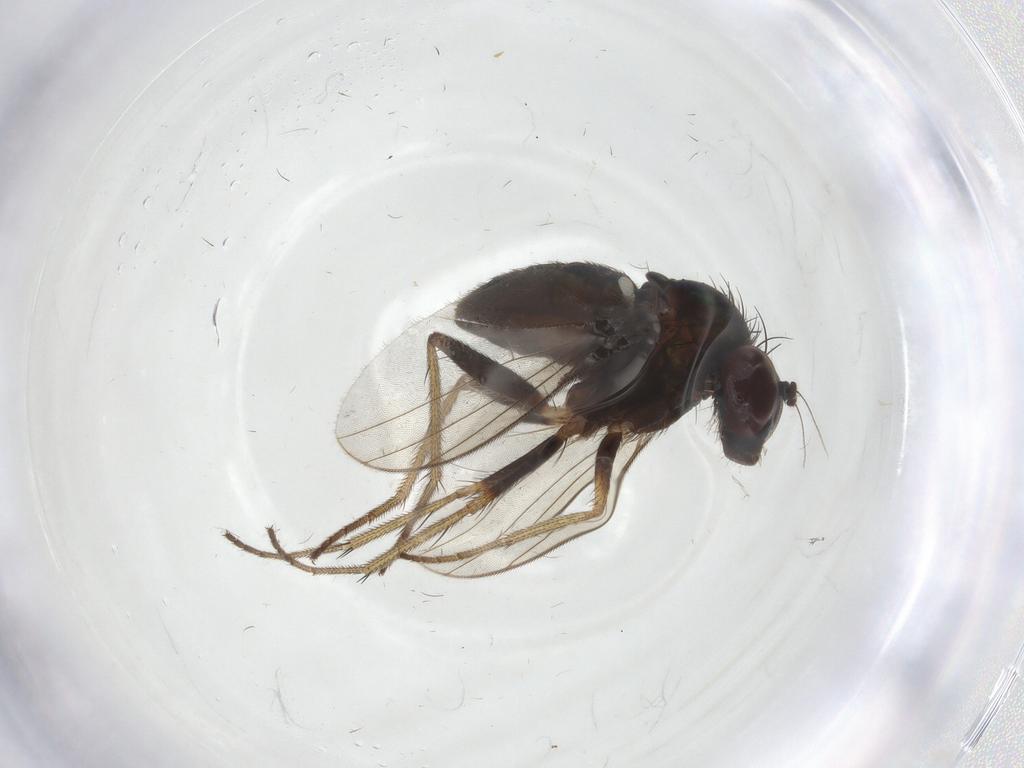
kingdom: Animalia
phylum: Arthropoda
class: Insecta
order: Diptera
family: Dolichopodidae
